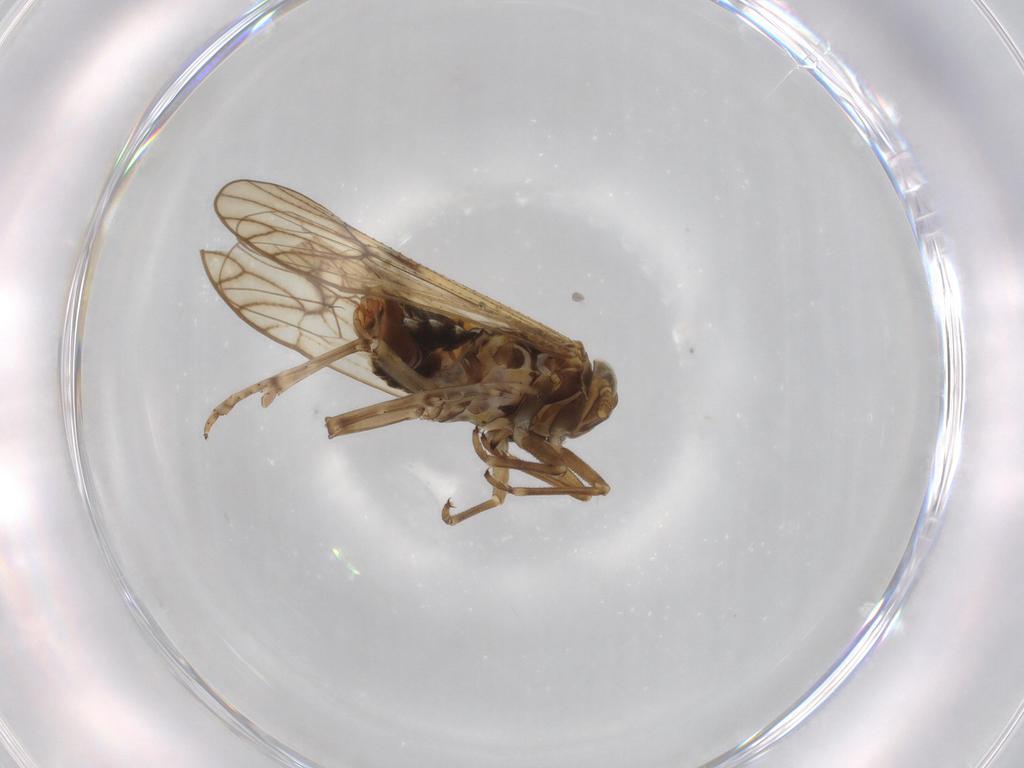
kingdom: Animalia
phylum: Arthropoda
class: Insecta
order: Hemiptera
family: Delphacidae
